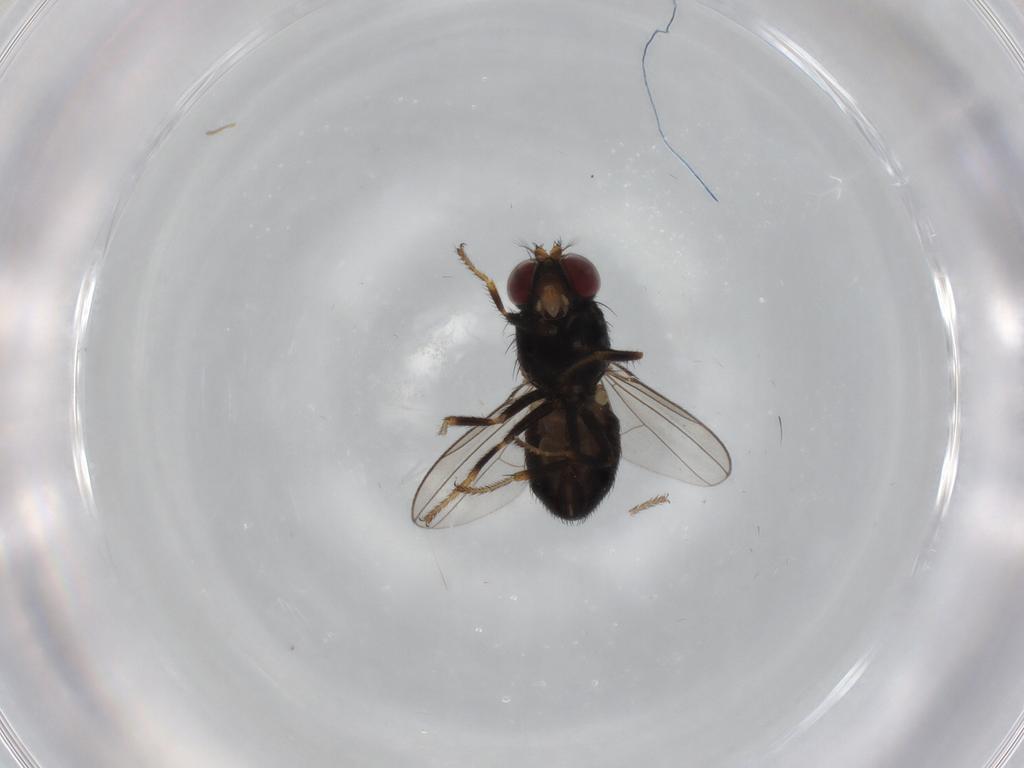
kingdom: Animalia
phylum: Arthropoda
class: Insecta
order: Diptera
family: Ephydridae
